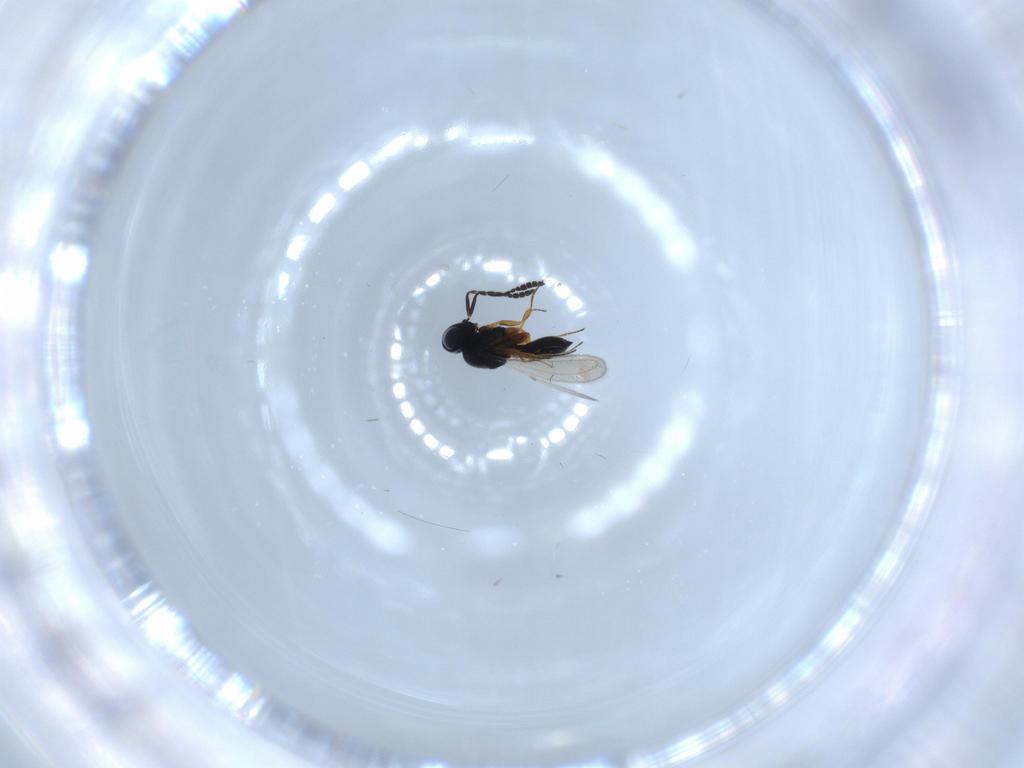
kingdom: Animalia
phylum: Arthropoda
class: Insecta
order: Hymenoptera
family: Scelionidae
